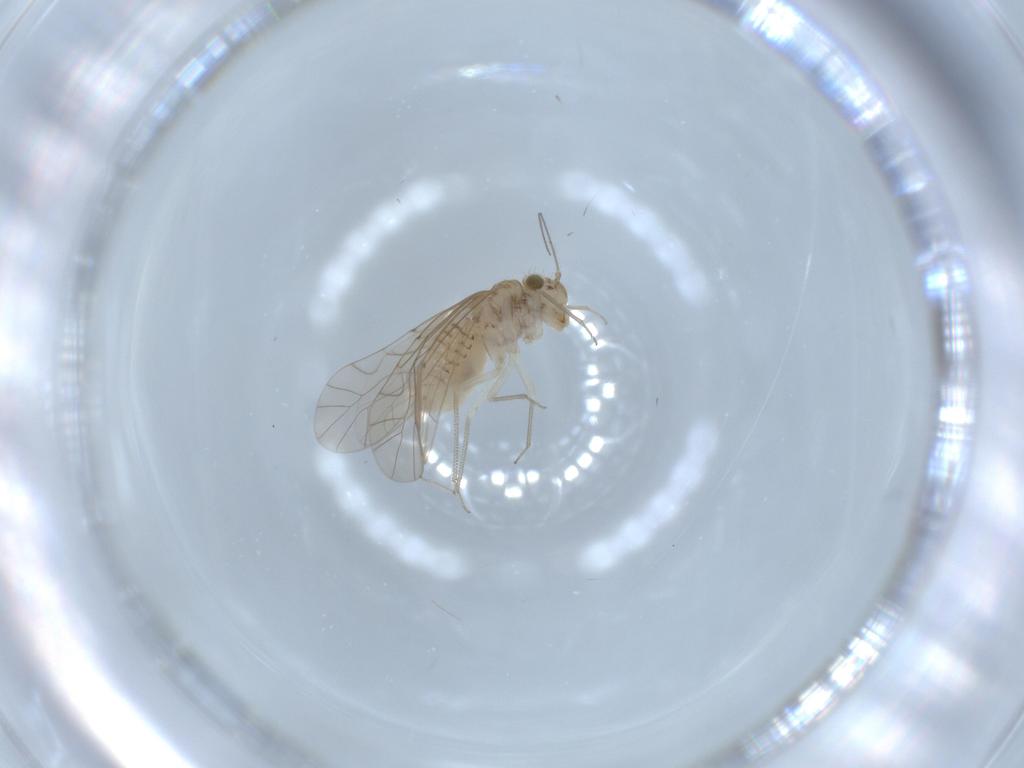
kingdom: Animalia
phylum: Arthropoda
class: Insecta
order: Psocodea
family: Lachesillidae
